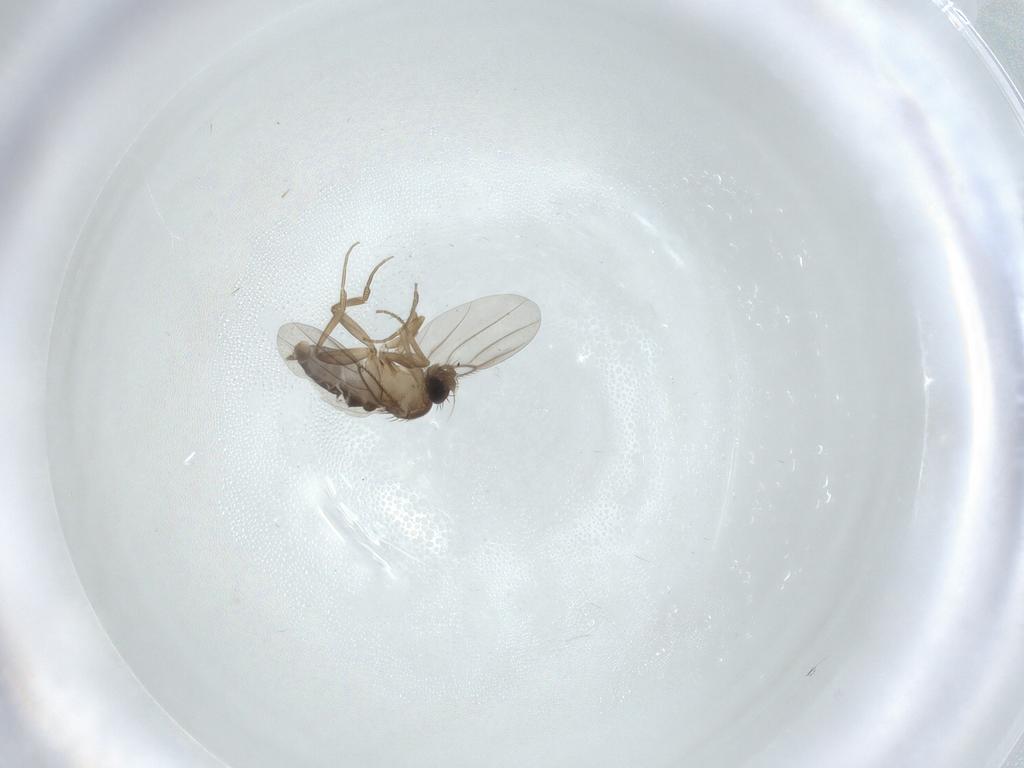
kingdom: Animalia
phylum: Arthropoda
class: Insecta
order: Diptera
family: Phoridae
